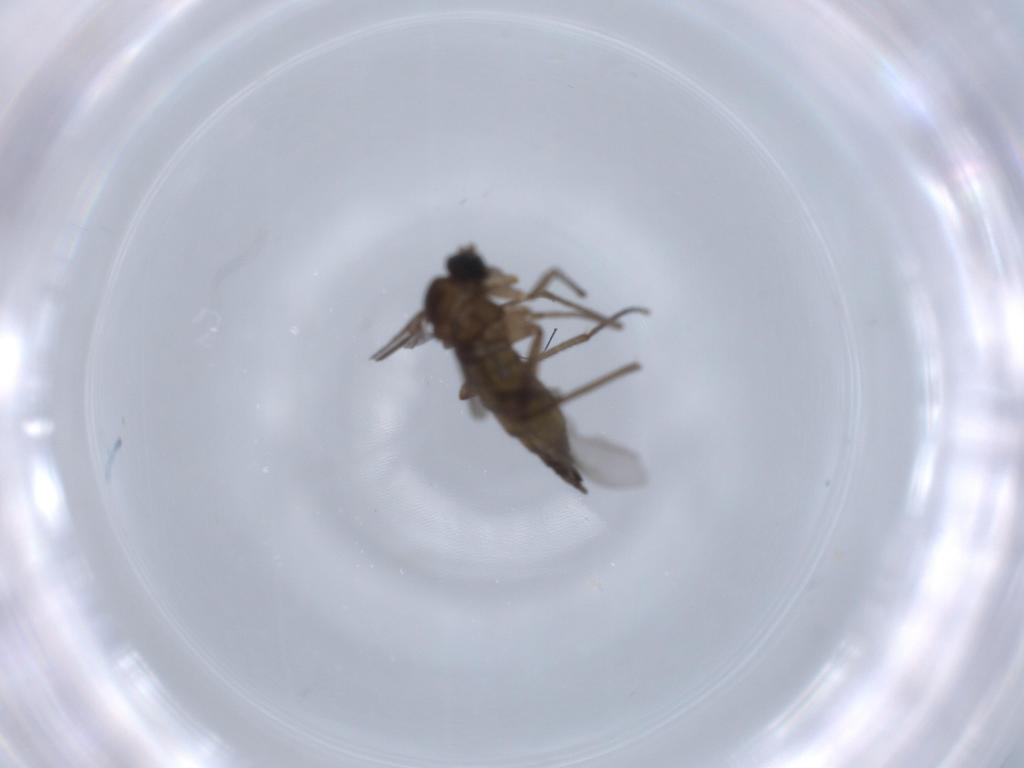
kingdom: Animalia
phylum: Arthropoda
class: Insecta
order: Diptera
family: Sciaridae
